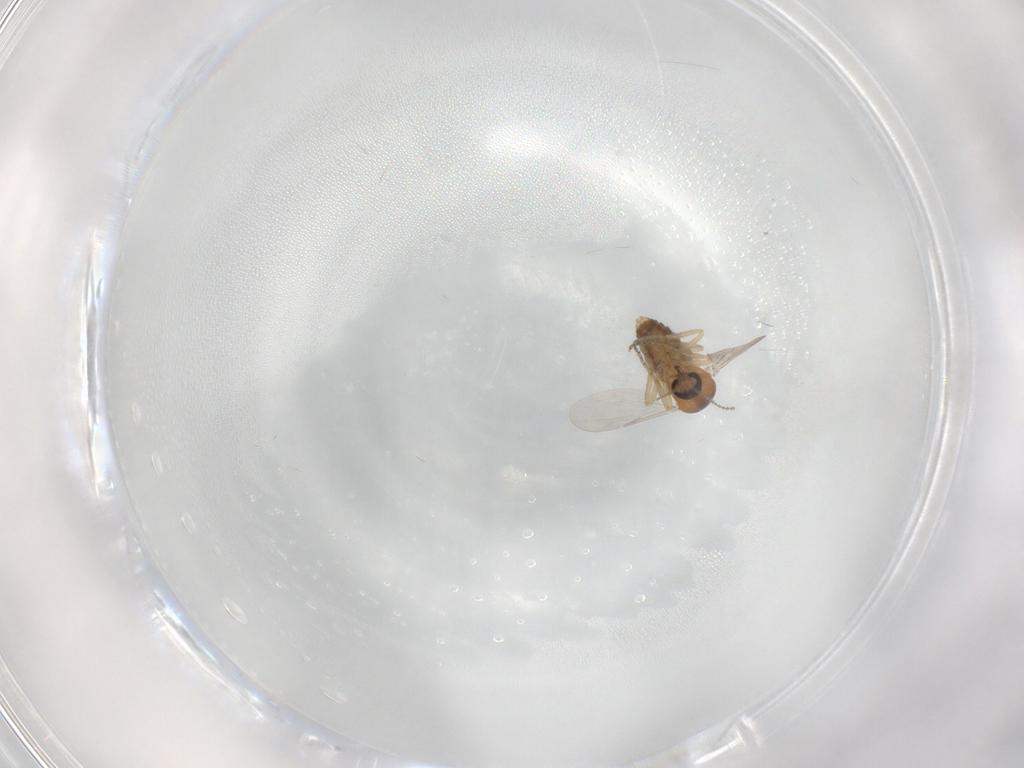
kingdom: Animalia
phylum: Arthropoda
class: Insecta
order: Diptera
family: Ceratopogonidae
